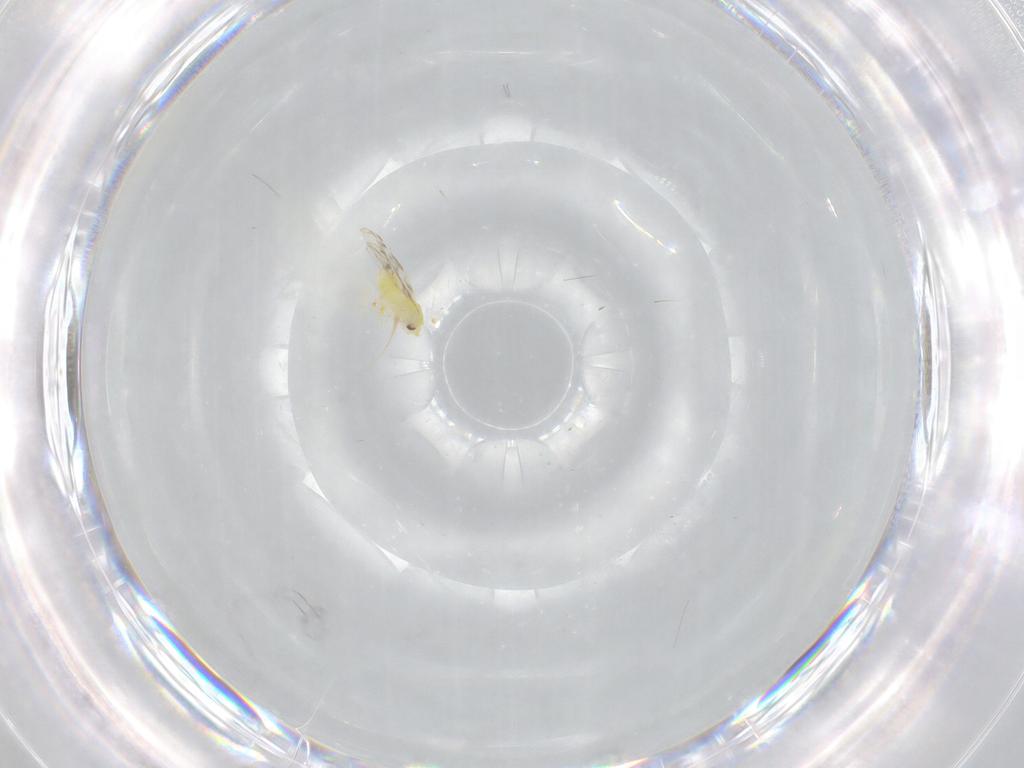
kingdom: Animalia
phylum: Arthropoda
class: Insecta
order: Hemiptera
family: Aleyrodidae
